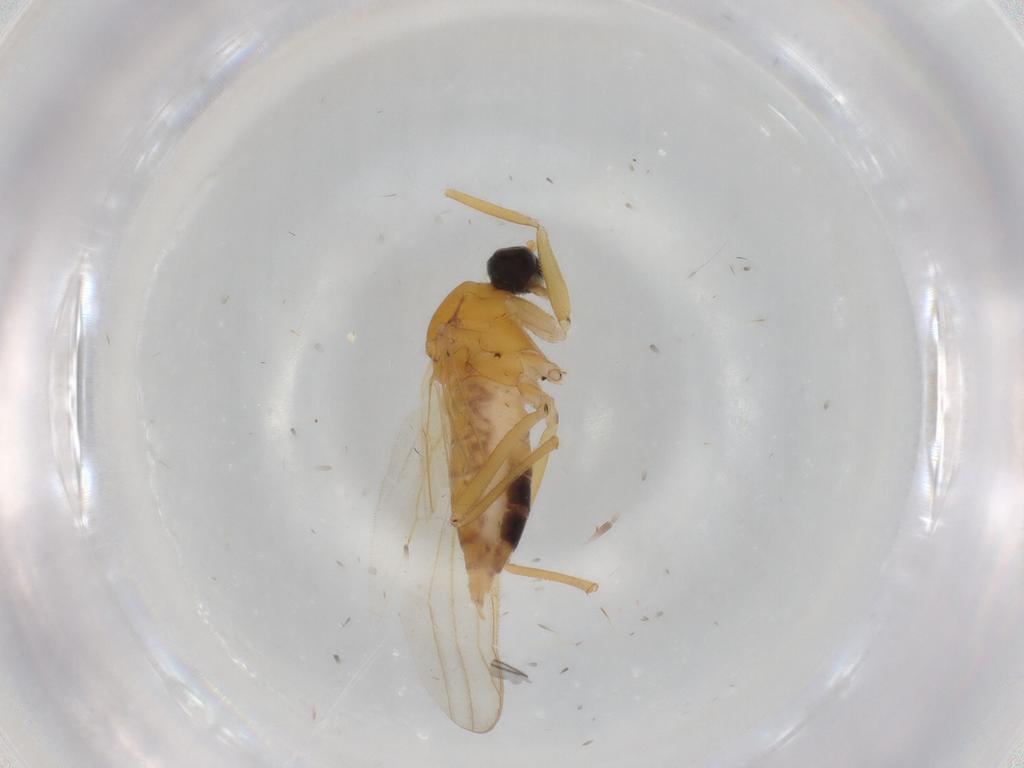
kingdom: Animalia
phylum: Arthropoda
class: Insecta
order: Diptera
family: Hybotidae
